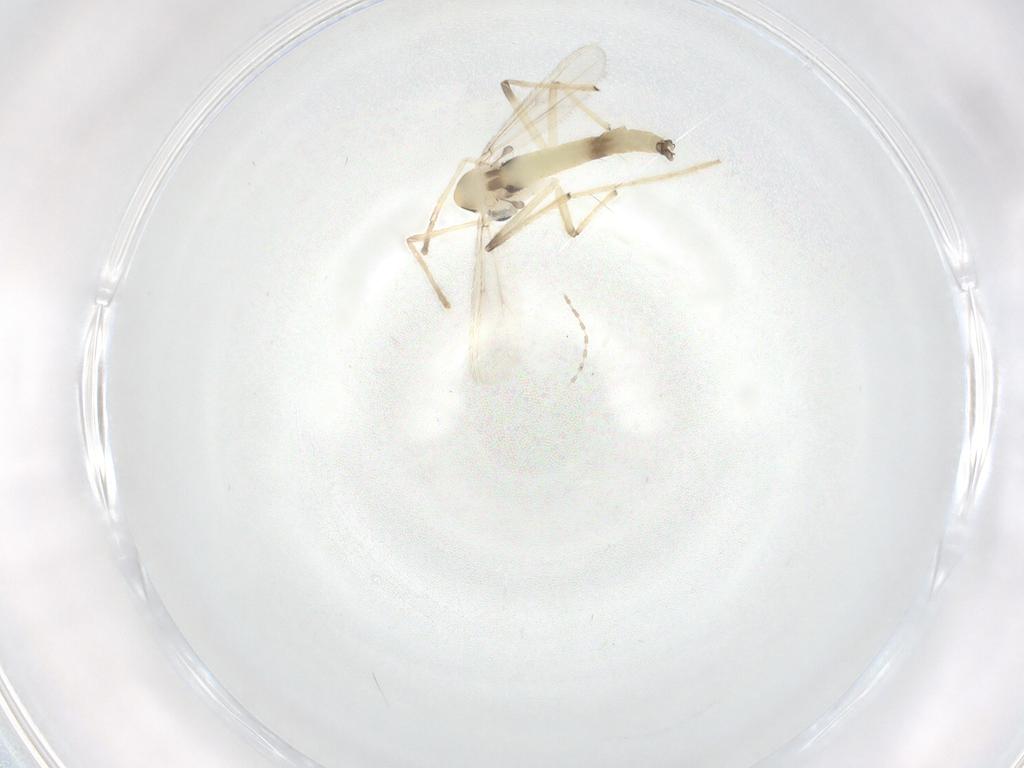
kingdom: Animalia
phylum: Arthropoda
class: Insecta
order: Diptera
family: Chironomidae
